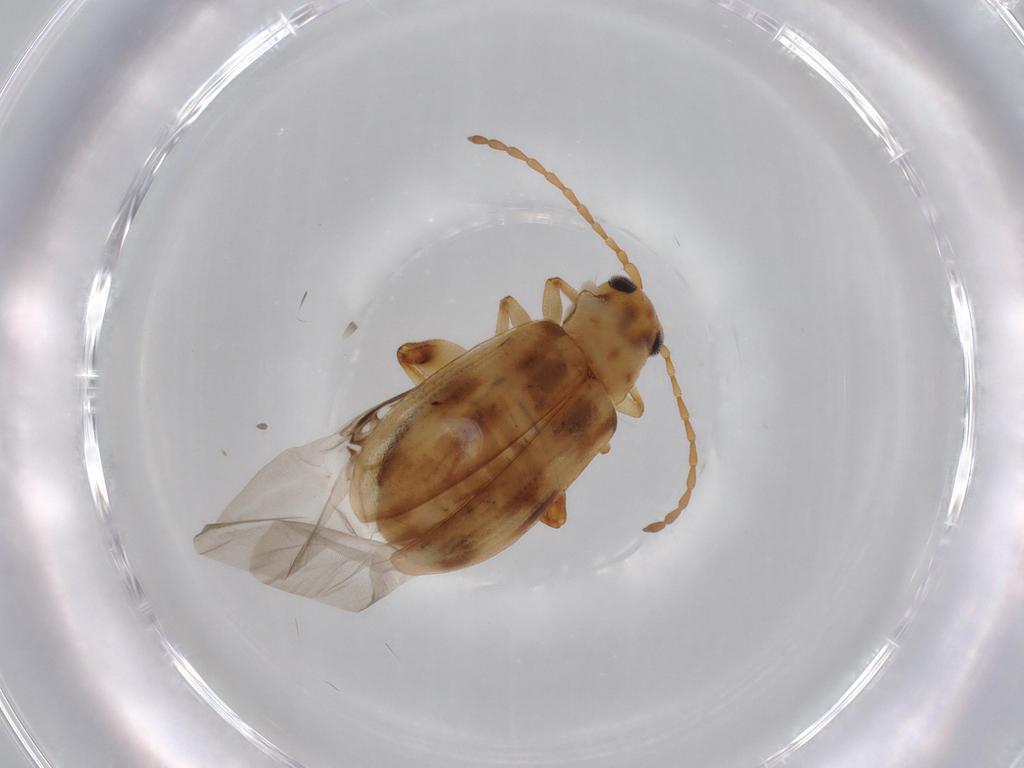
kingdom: Animalia
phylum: Arthropoda
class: Insecta
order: Coleoptera
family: Chrysomelidae
